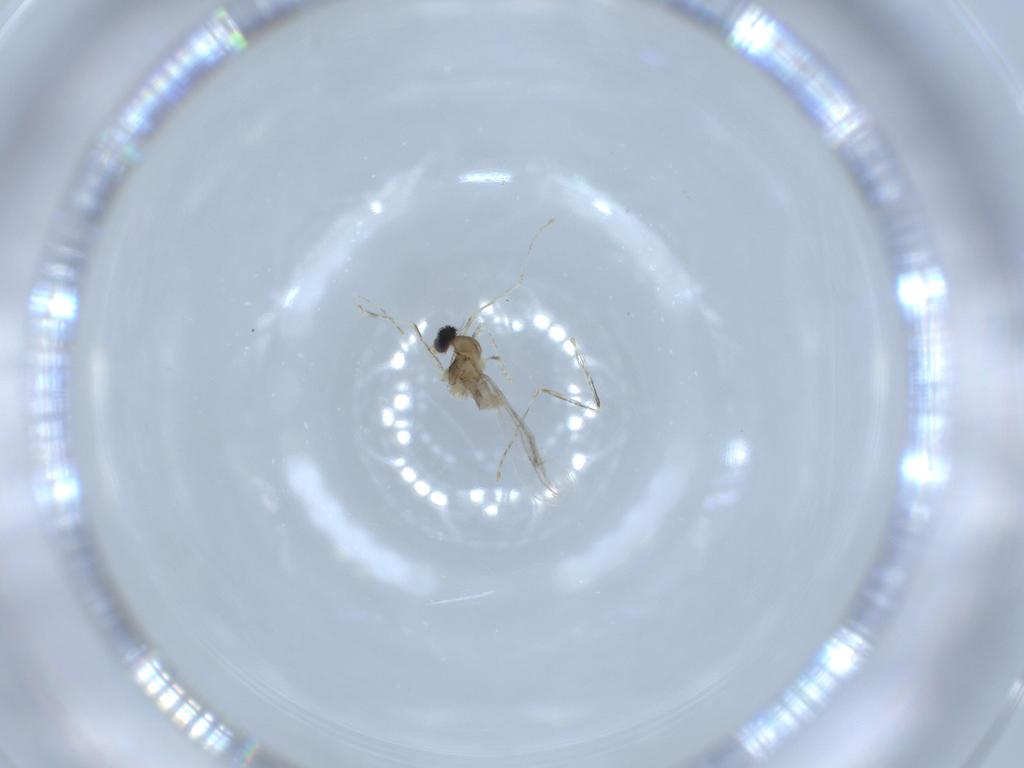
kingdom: Animalia
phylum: Arthropoda
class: Insecta
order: Diptera
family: Cecidomyiidae
